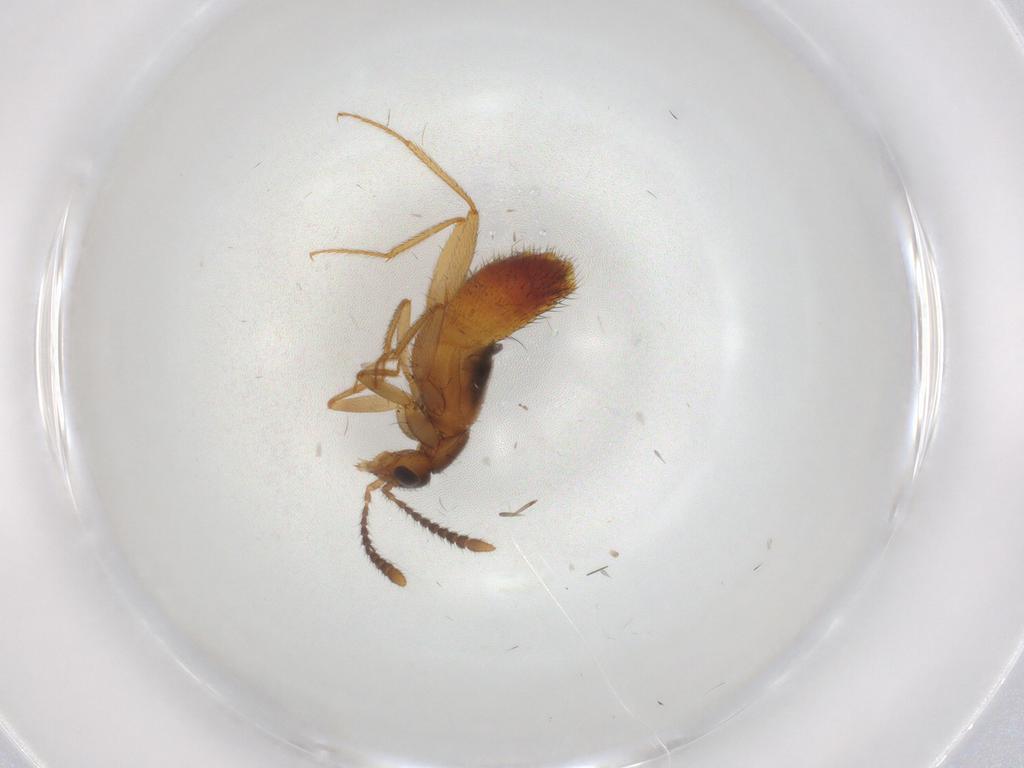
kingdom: Animalia
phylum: Arthropoda
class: Insecta
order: Coleoptera
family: Staphylinidae
